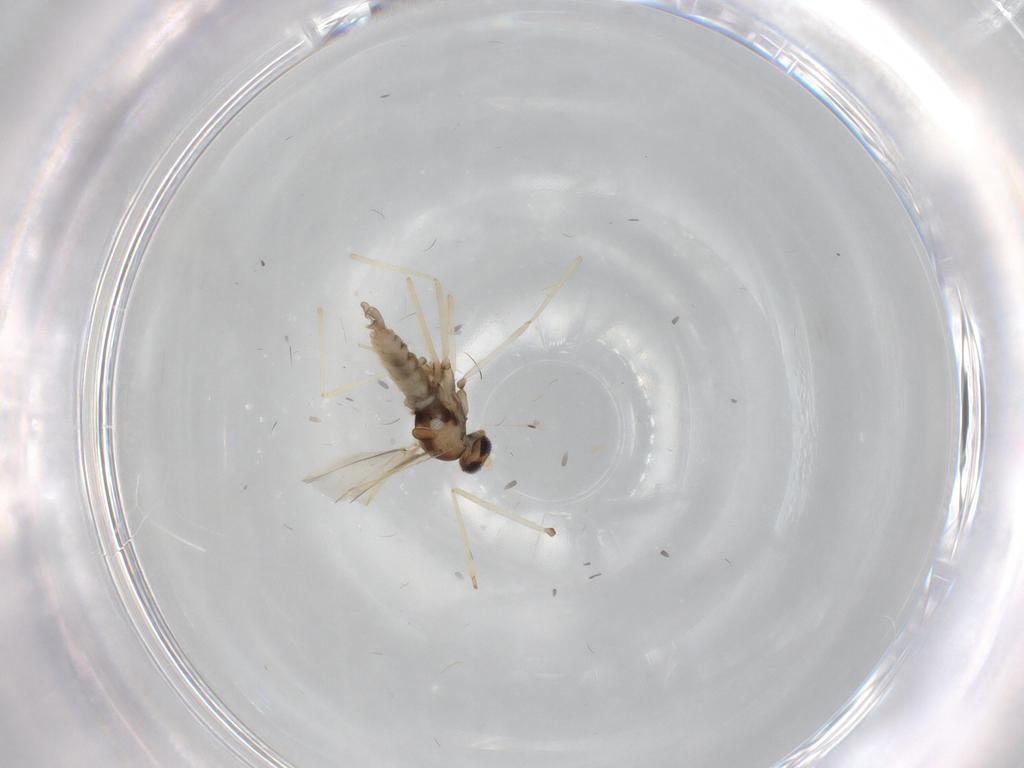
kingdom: Animalia
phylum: Arthropoda
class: Insecta
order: Diptera
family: Cecidomyiidae
